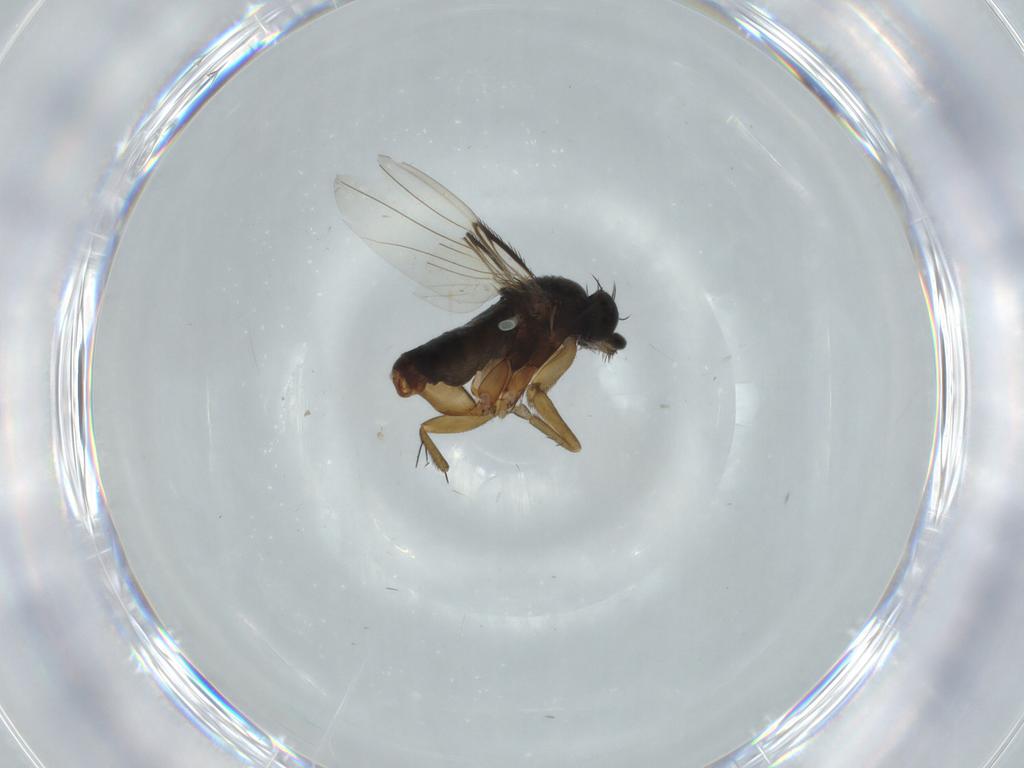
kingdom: Animalia
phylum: Arthropoda
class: Insecta
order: Diptera
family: Phoridae
